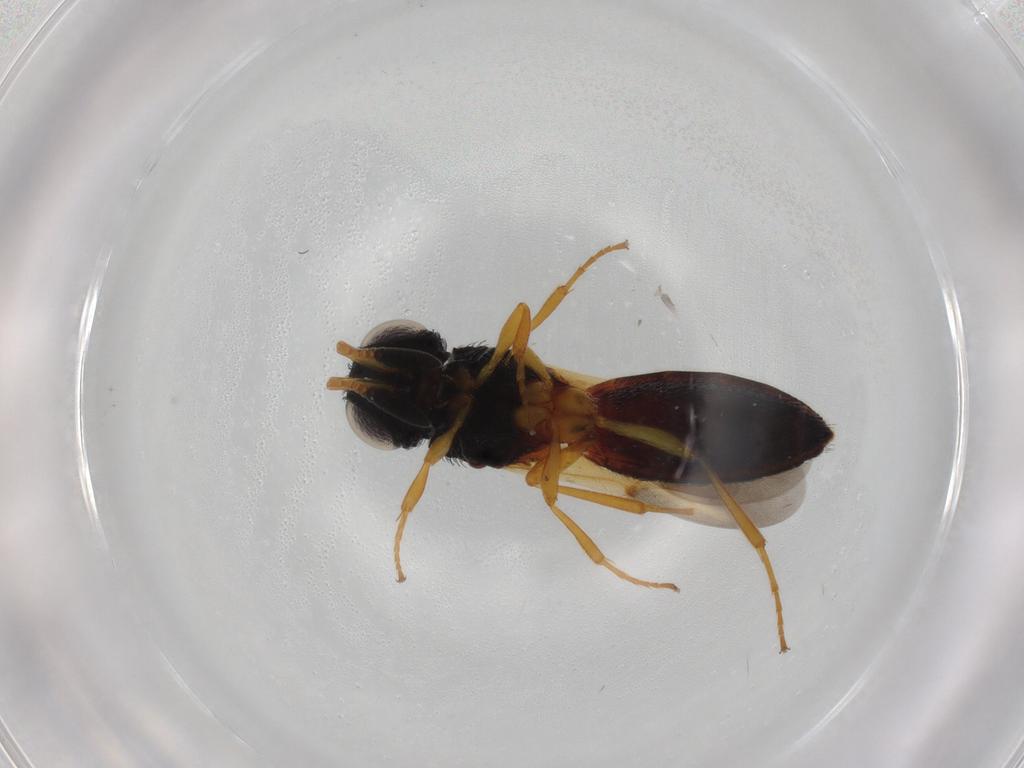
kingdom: Animalia
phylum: Arthropoda
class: Insecta
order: Hymenoptera
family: Scelionidae
